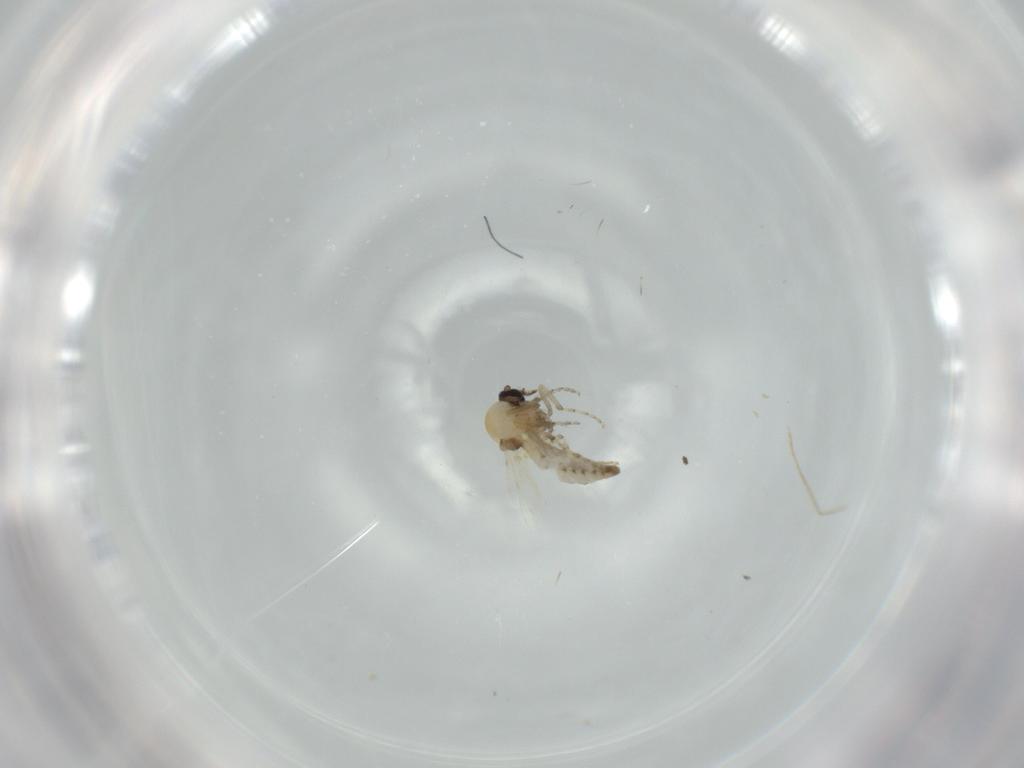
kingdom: Animalia
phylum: Arthropoda
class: Insecta
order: Diptera
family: Ceratopogonidae
